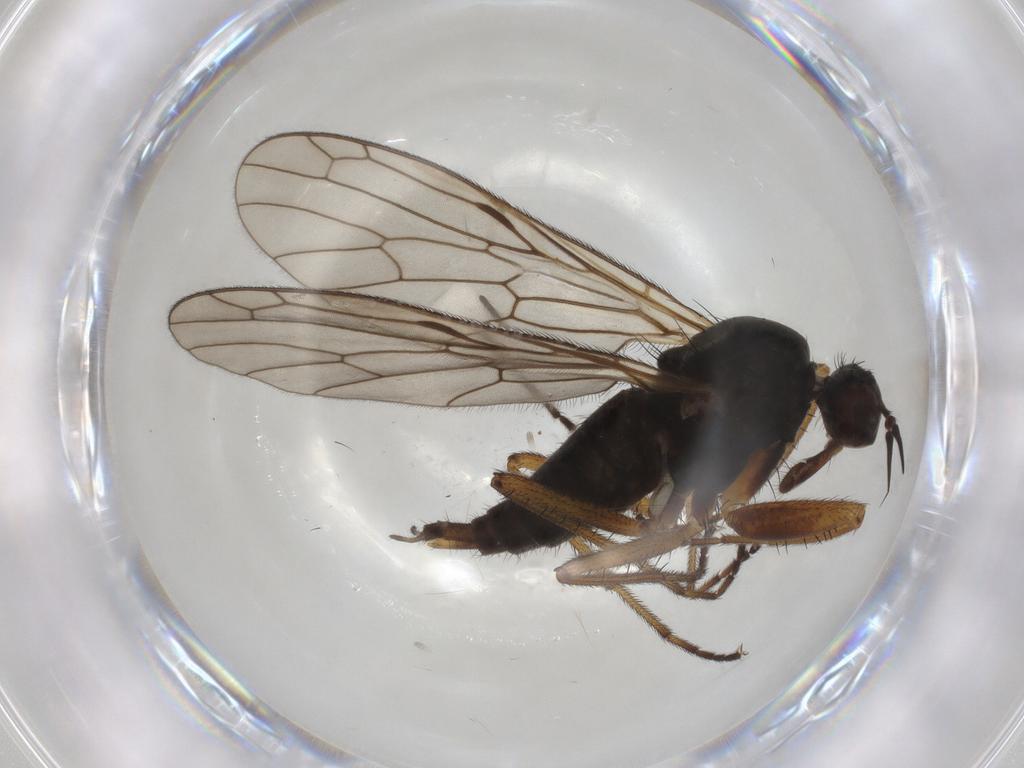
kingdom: Animalia
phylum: Arthropoda
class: Insecta
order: Diptera
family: Empididae
